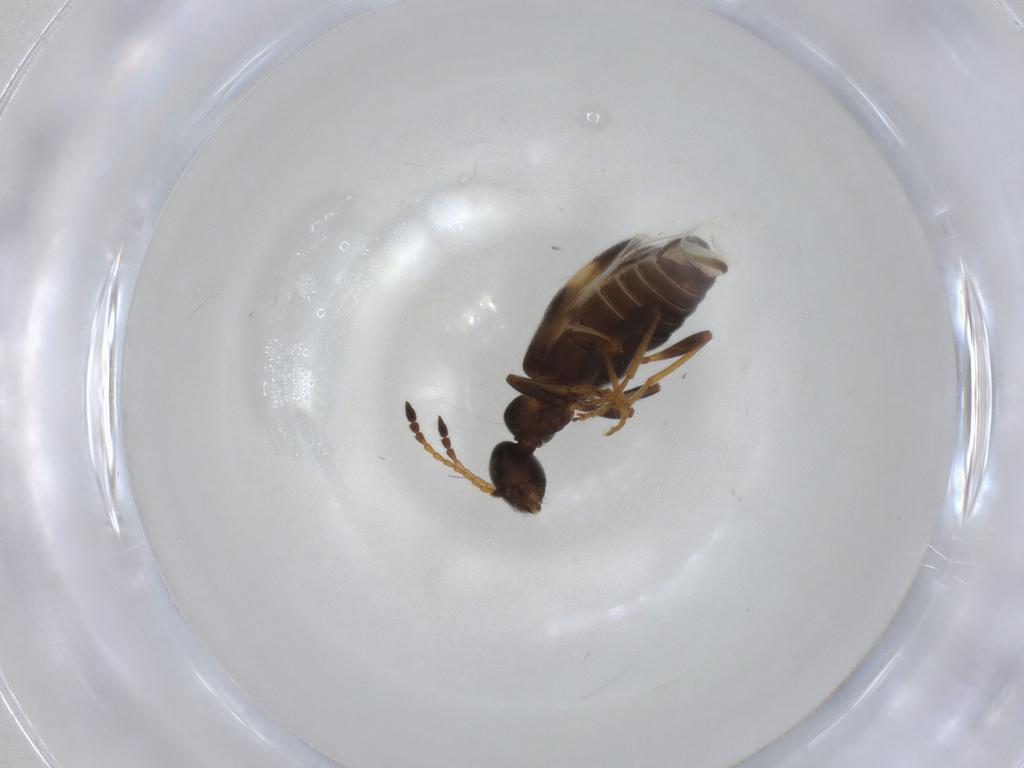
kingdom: Animalia
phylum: Arthropoda
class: Insecta
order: Coleoptera
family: Anthicidae
